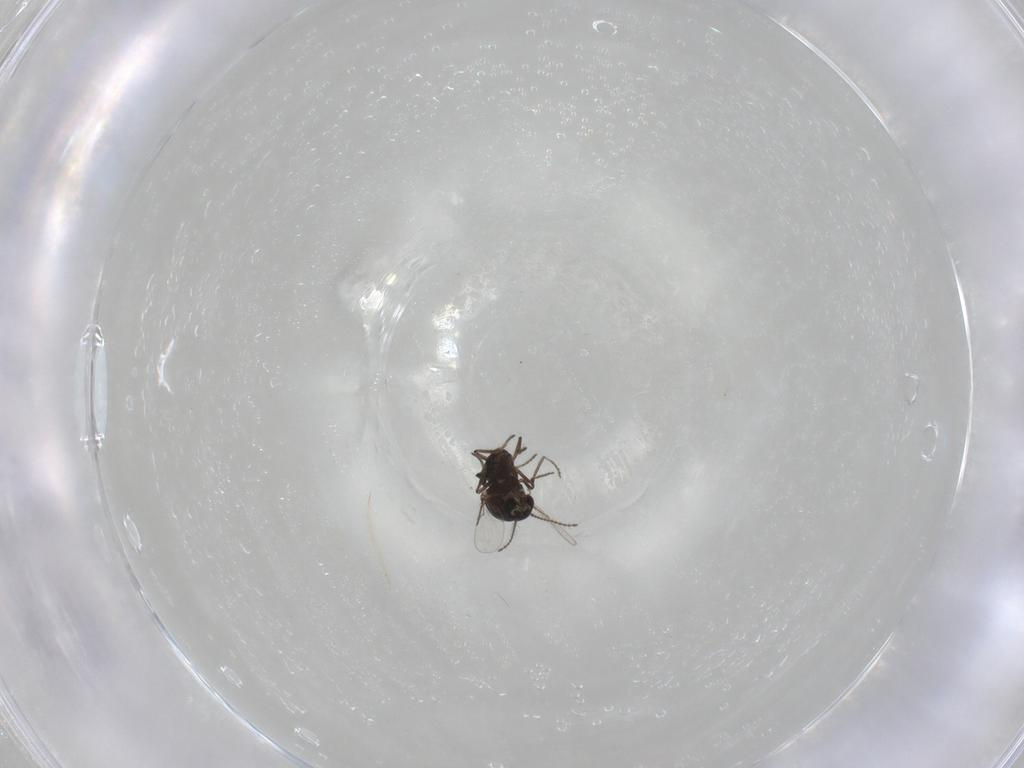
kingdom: Animalia
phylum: Arthropoda
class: Insecta
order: Diptera
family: Ceratopogonidae
